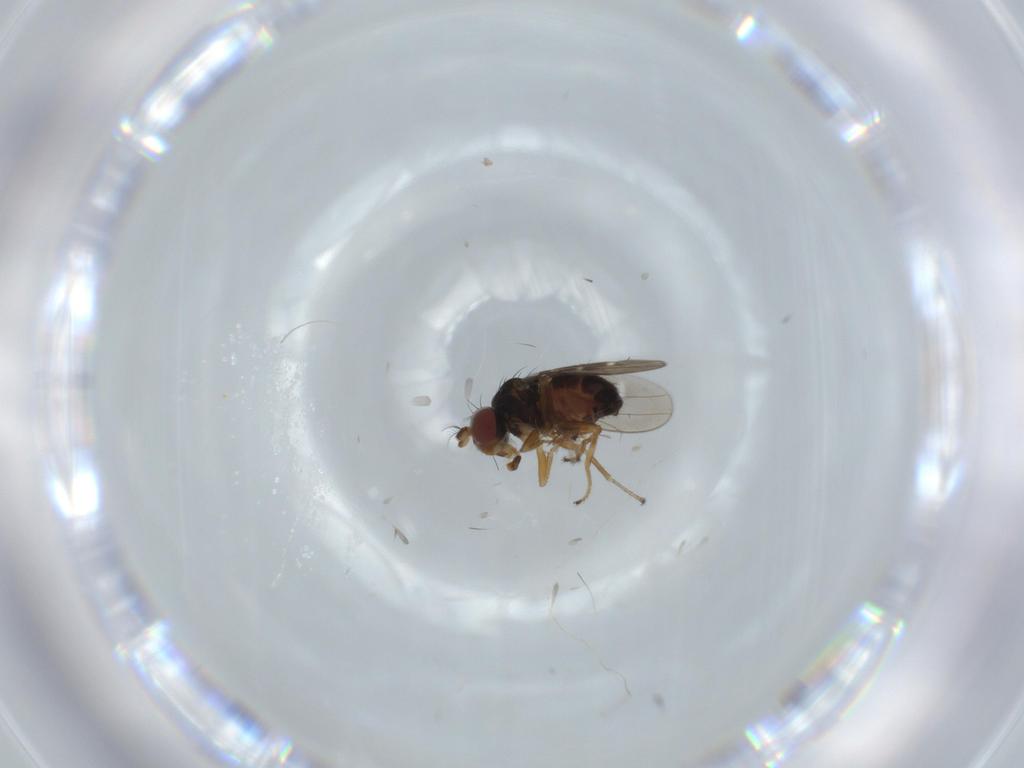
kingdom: Animalia
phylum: Arthropoda
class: Insecta
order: Diptera
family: Ephydridae
